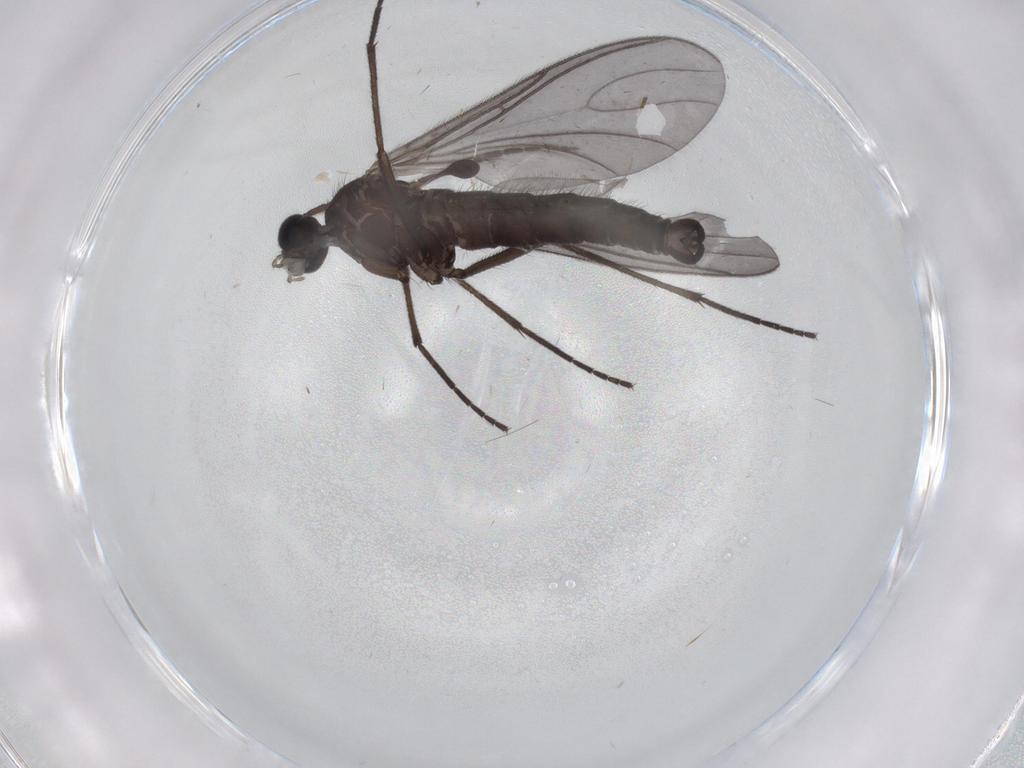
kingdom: Animalia
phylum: Arthropoda
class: Insecta
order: Diptera
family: Sciaridae
